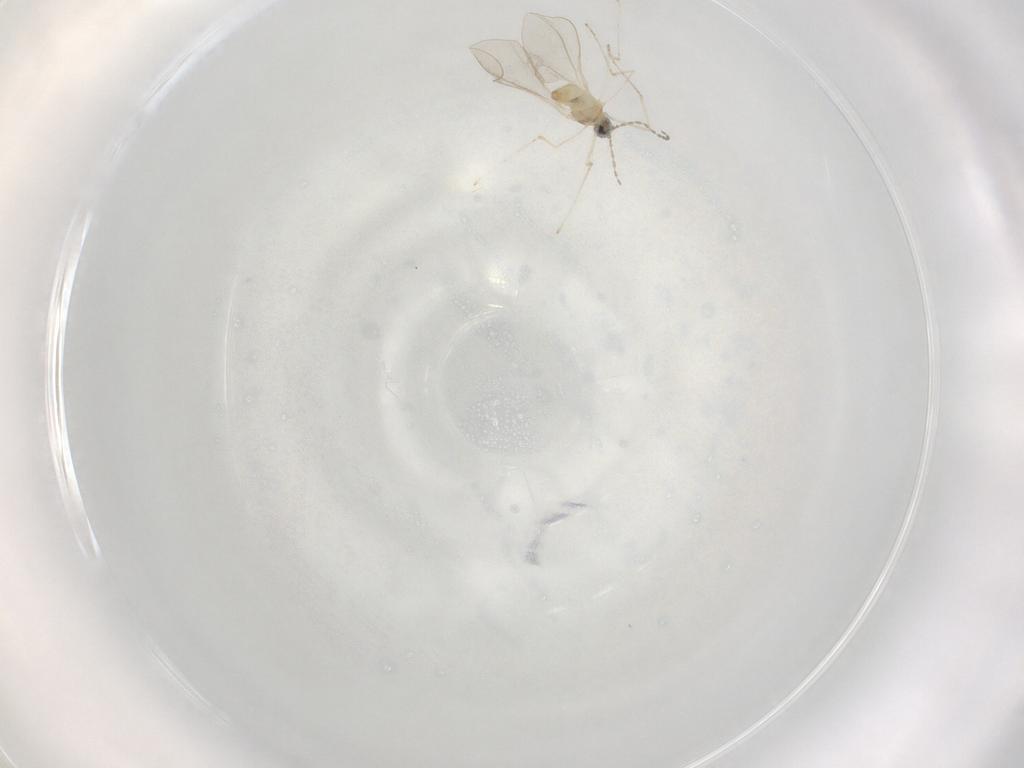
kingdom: Animalia
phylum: Arthropoda
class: Insecta
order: Diptera
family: Cecidomyiidae
